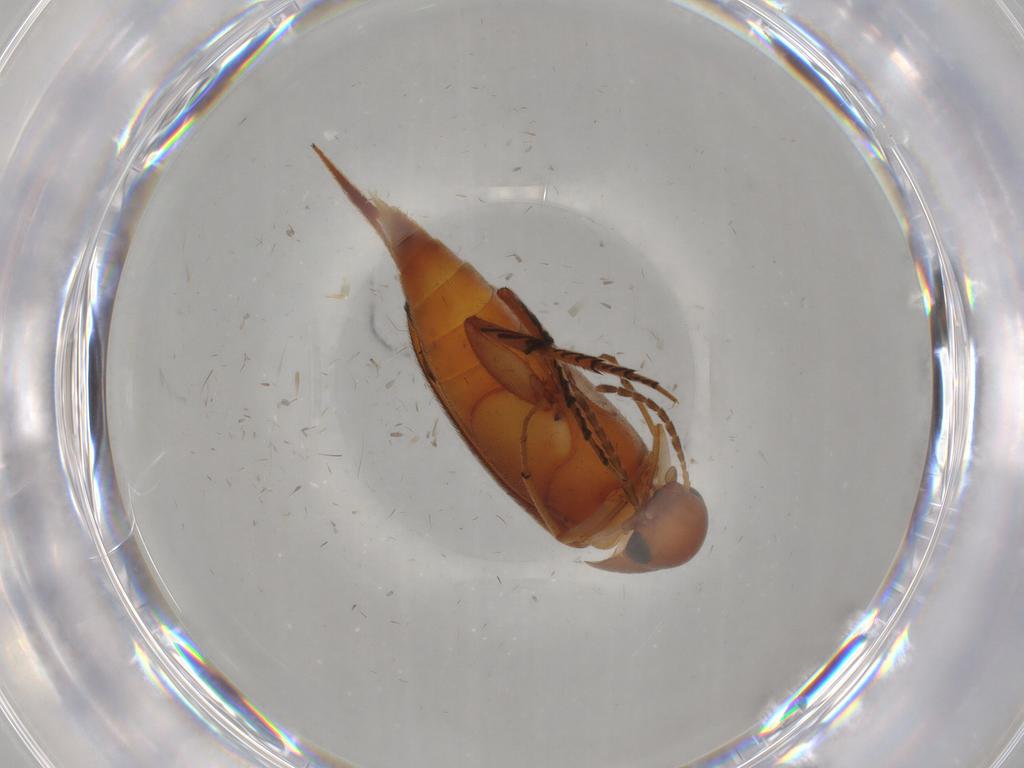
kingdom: Animalia
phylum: Arthropoda
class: Insecta
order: Coleoptera
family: Mordellidae
